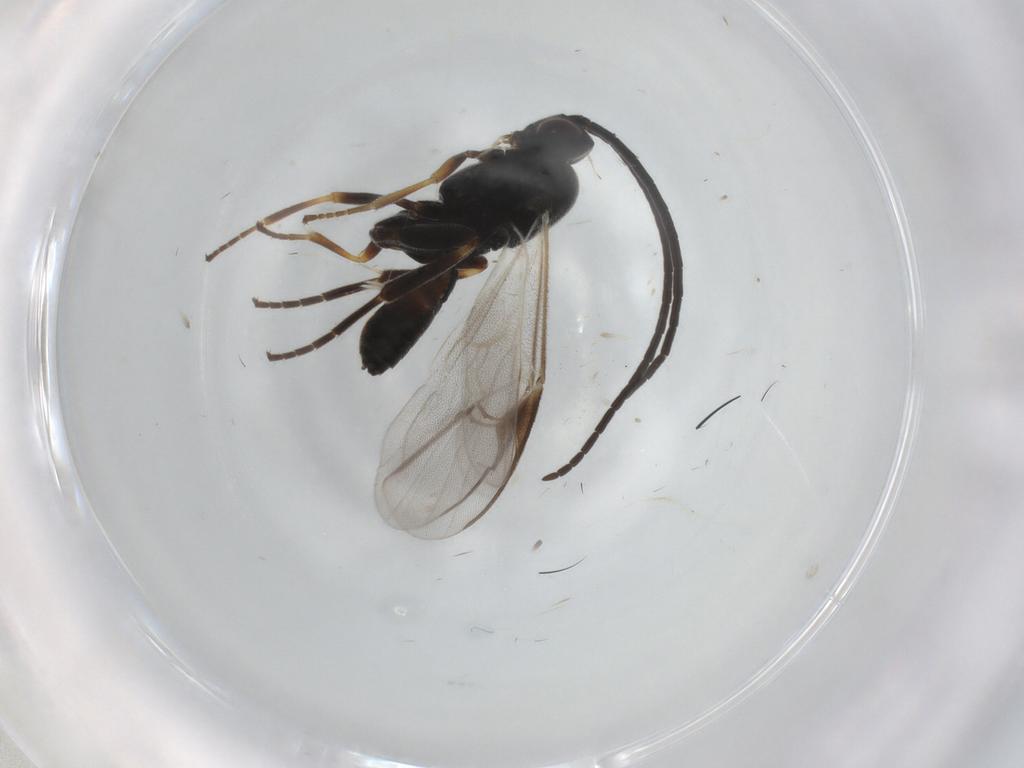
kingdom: Animalia
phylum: Arthropoda
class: Insecta
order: Hymenoptera
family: Braconidae
